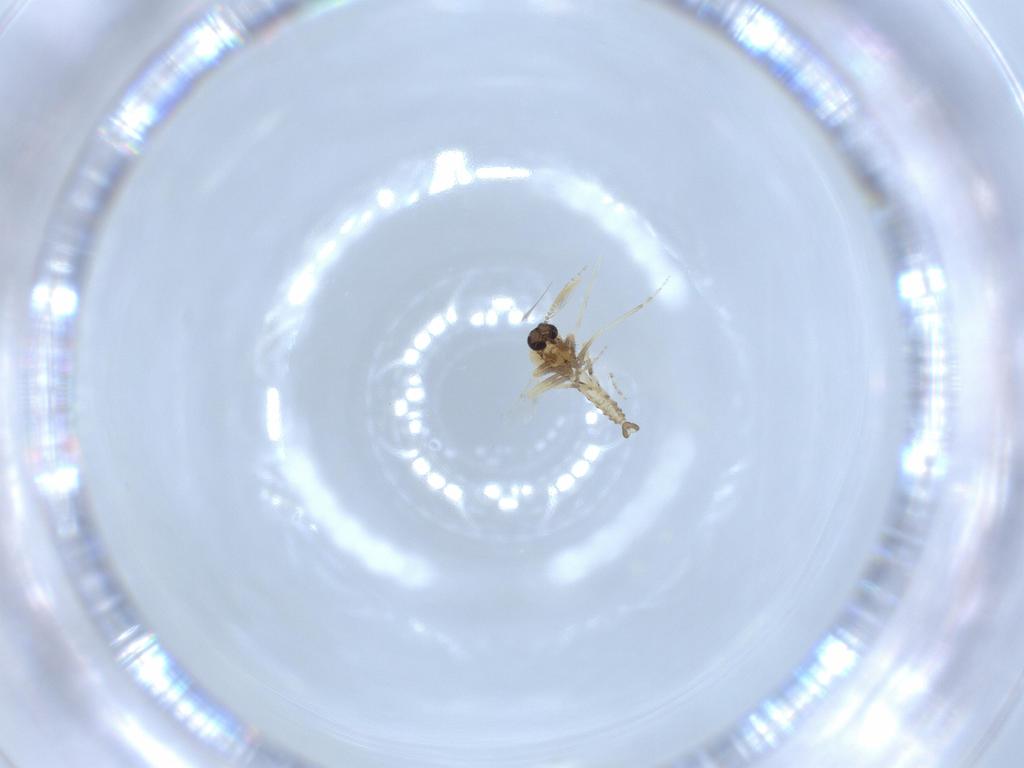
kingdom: Animalia
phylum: Arthropoda
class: Insecta
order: Diptera
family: Ceratopogonidae
